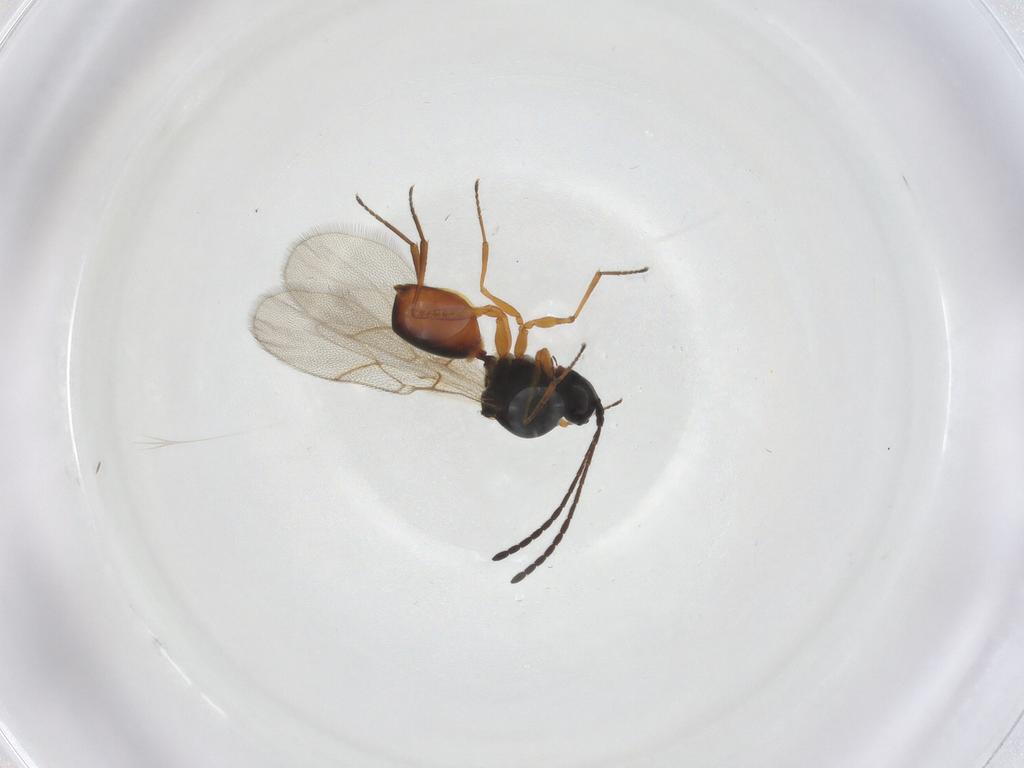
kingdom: Animalia
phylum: Arthropoda
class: Insecta
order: Hymenoptera
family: Figitidae
